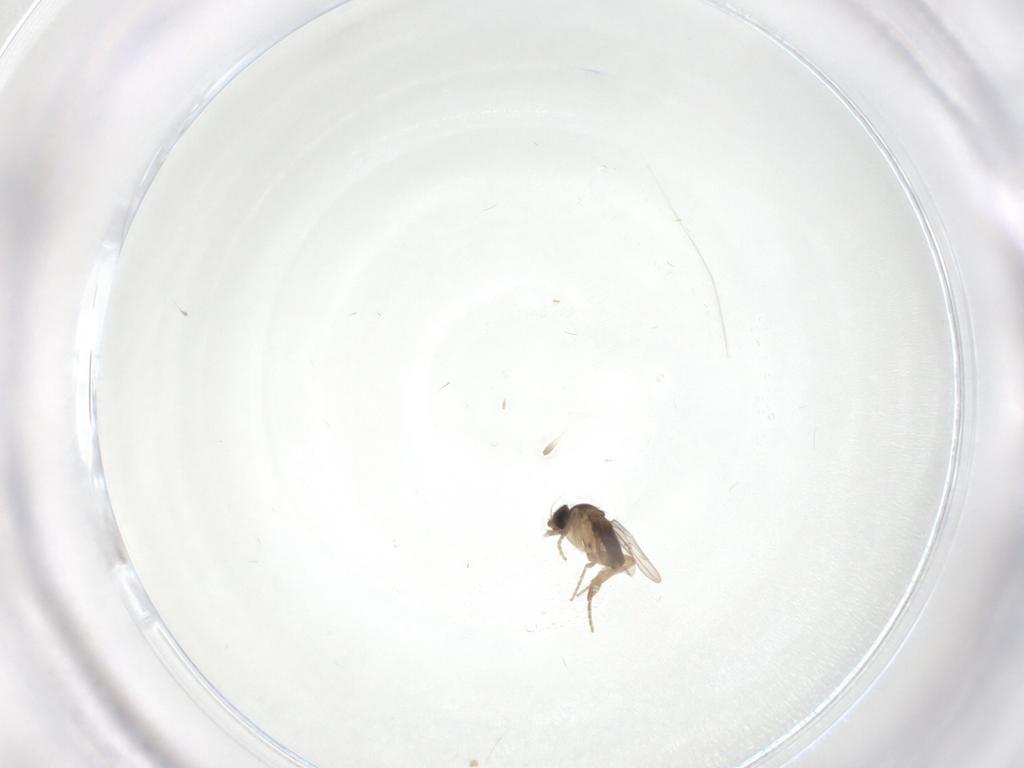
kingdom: Animalia
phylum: Arthropoda
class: Insecta
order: Diptera
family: Phoridae
